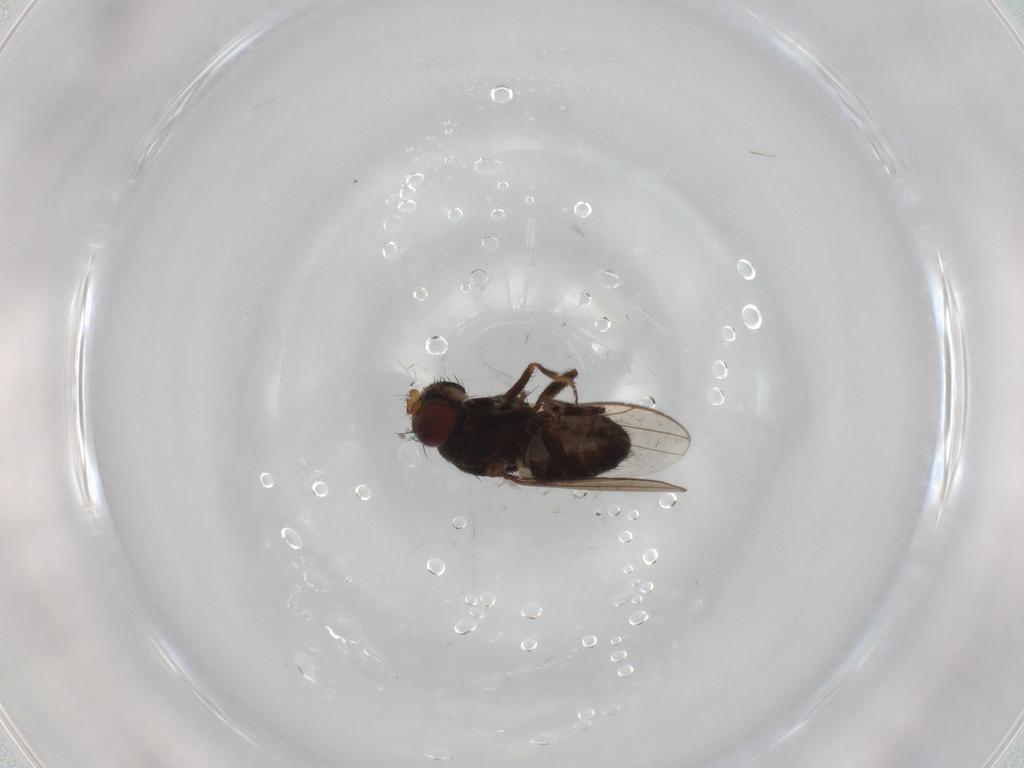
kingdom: Animalia
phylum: Arthropoda
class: Insecta
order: Diptera
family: Ceratopogonidae
